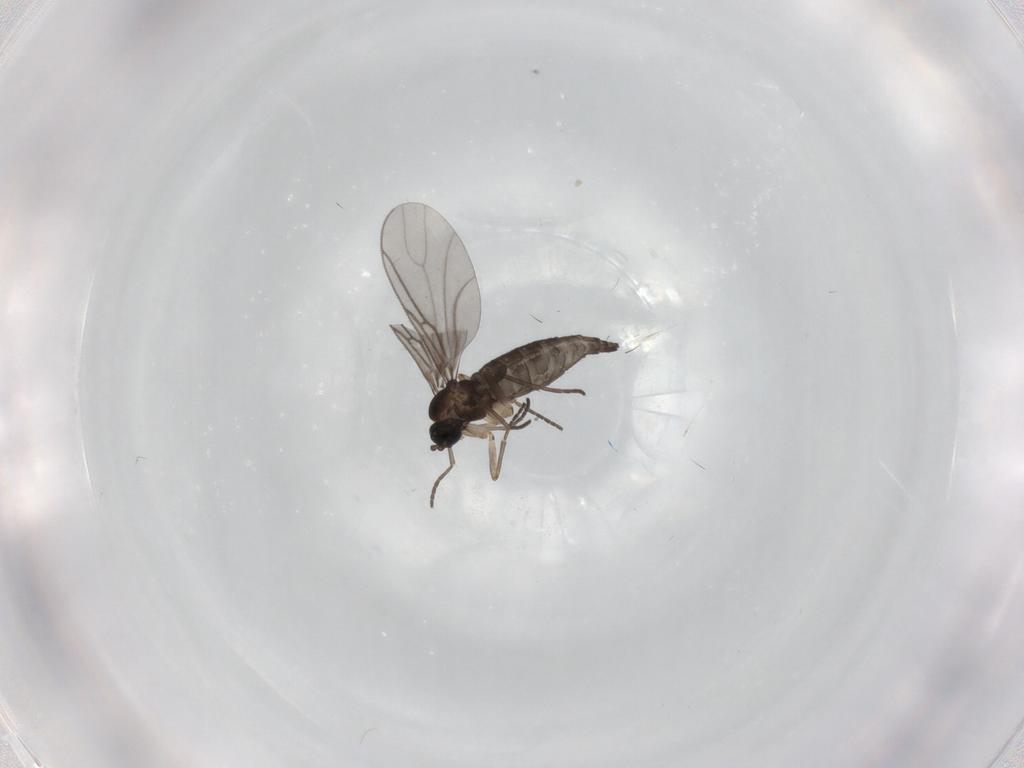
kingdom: Animalia
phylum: Arthropoda
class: Insecta
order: Diptera
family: Sciaridae
